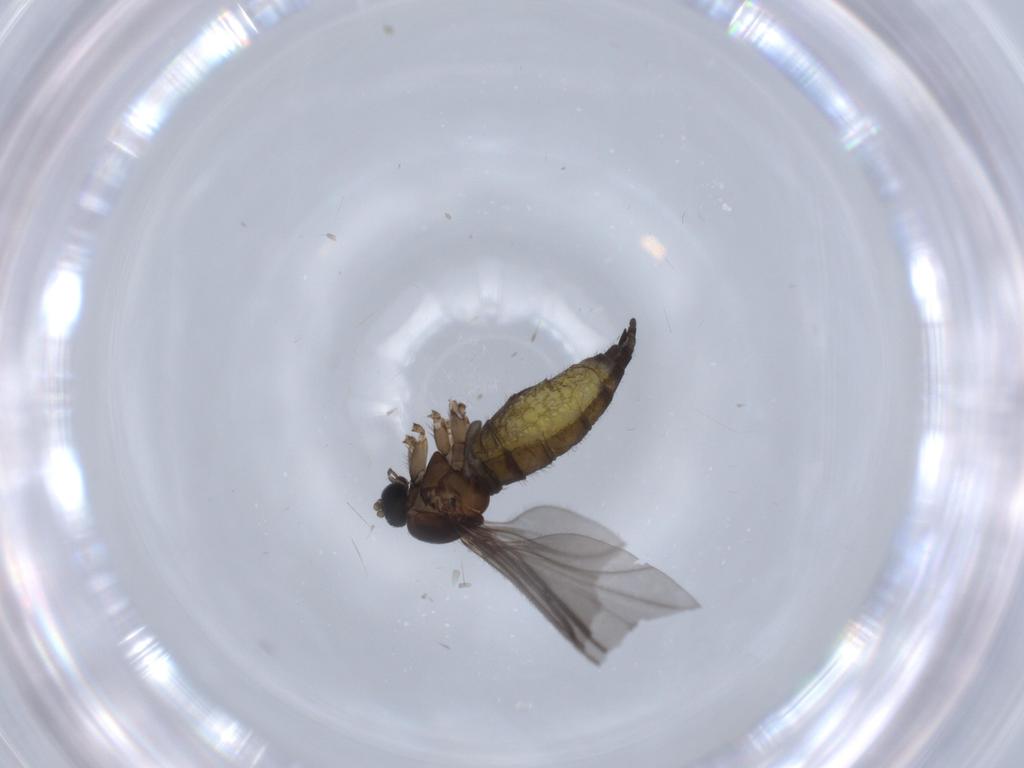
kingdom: Animalia
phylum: Arthropoda
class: Insecta
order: Diptera
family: Sciaridae
